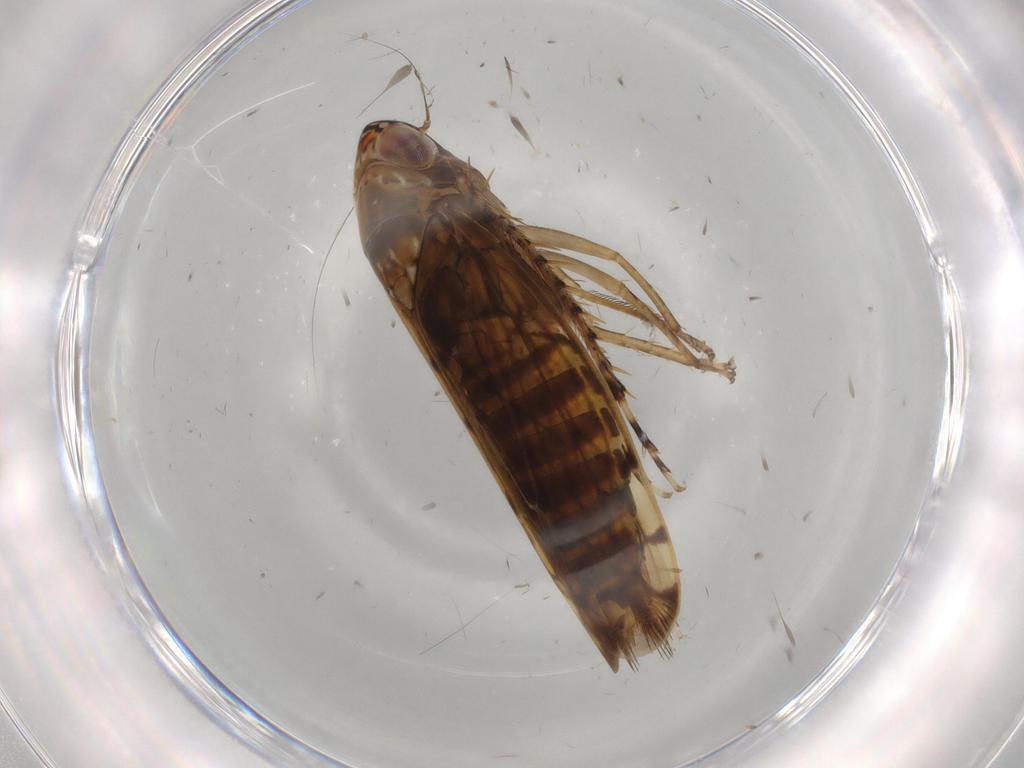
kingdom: Animalia
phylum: Arthropoda
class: Insecta
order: Hemiptera
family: Cicadellidae
